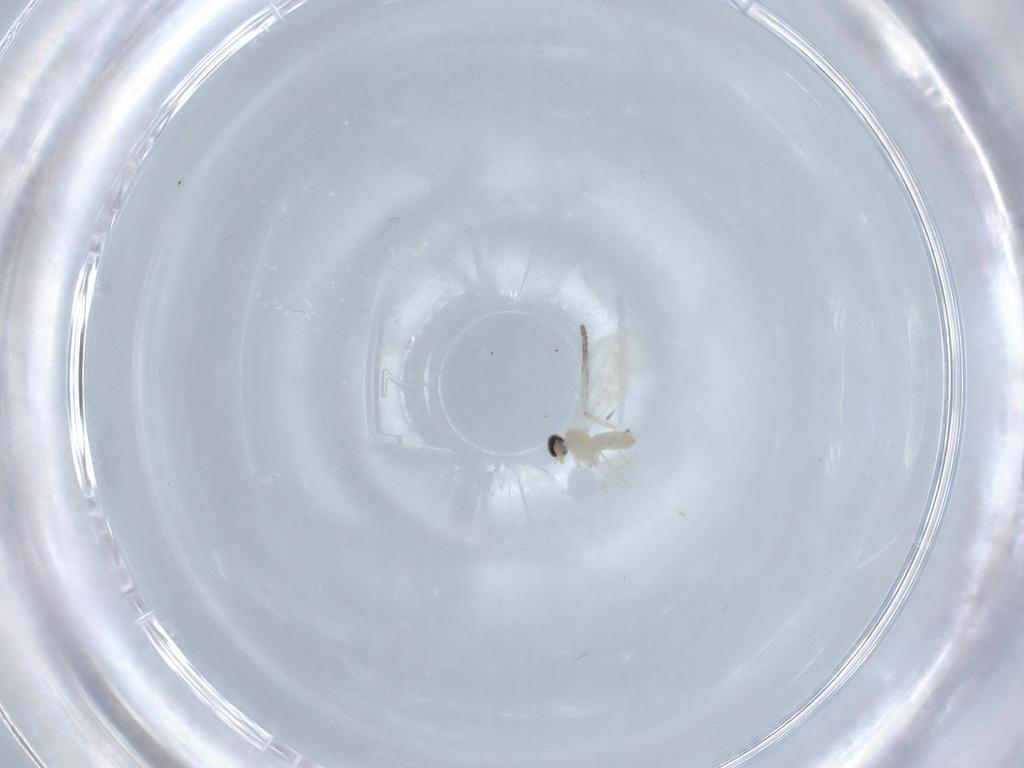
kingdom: Animalia
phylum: Arthropoda
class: Insecta
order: Diptera
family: Cecidomyiidae
